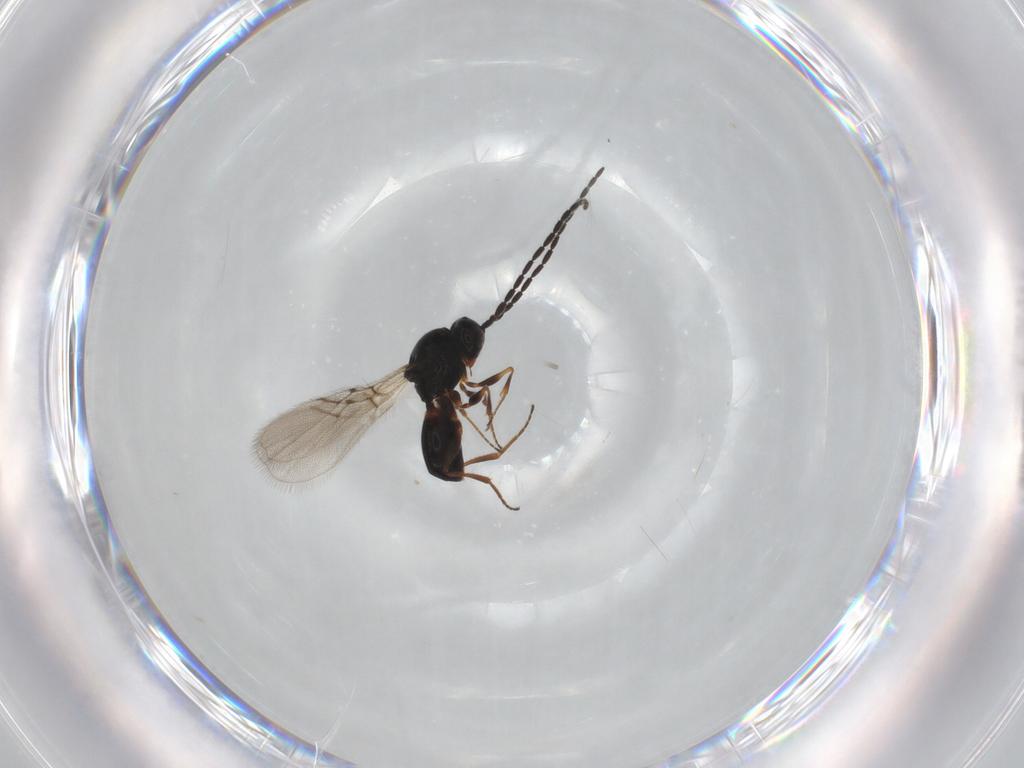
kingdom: Animalia
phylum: Arthropoda
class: Insecta
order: Hymenoptera
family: Figitidae
